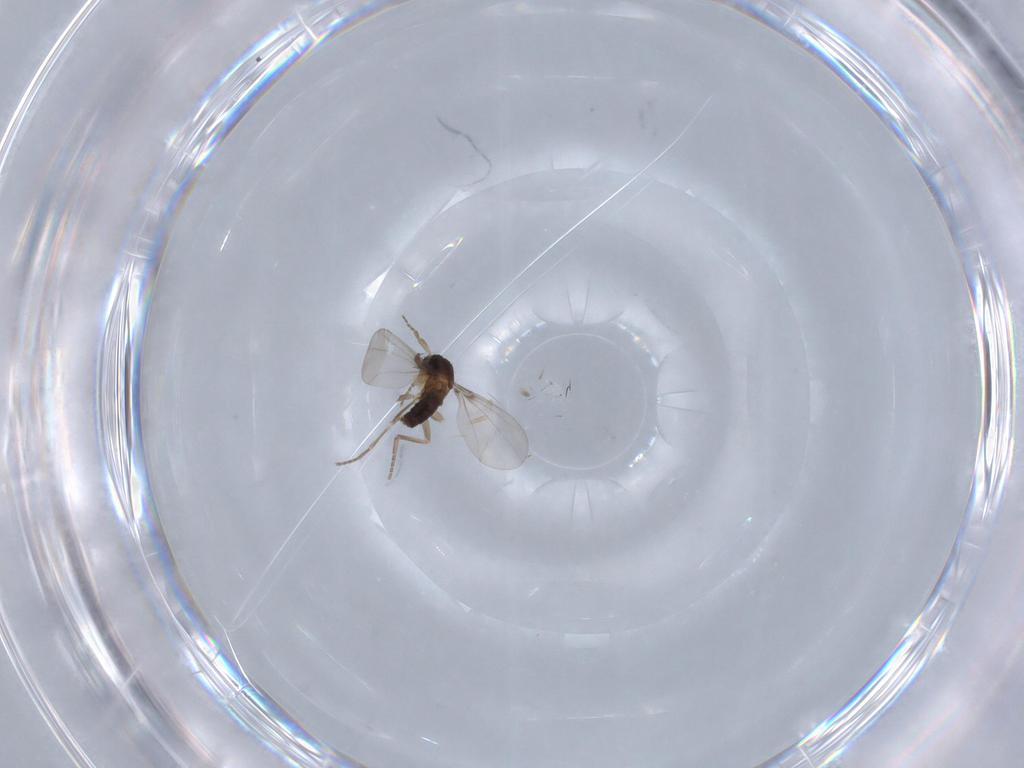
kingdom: Animalia
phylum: Arthropoda
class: Insecta
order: Diptera
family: Phoridae
